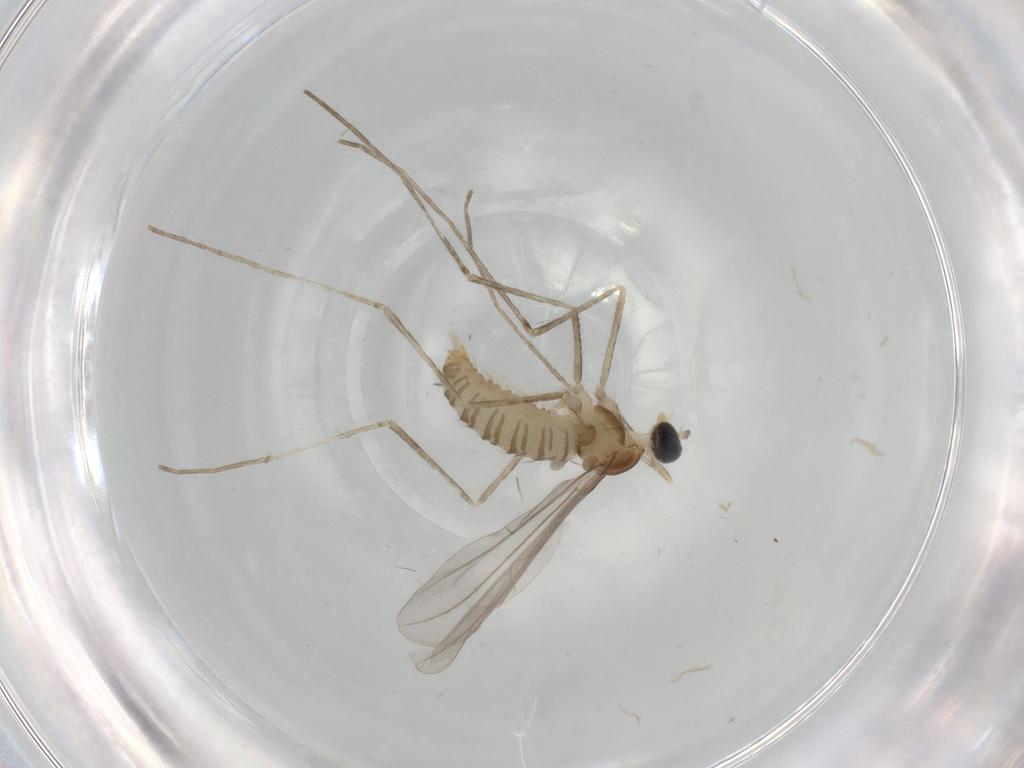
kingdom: Animalia
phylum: Arthropoda
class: Insecta
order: Diptera
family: Cecidomyiidae
